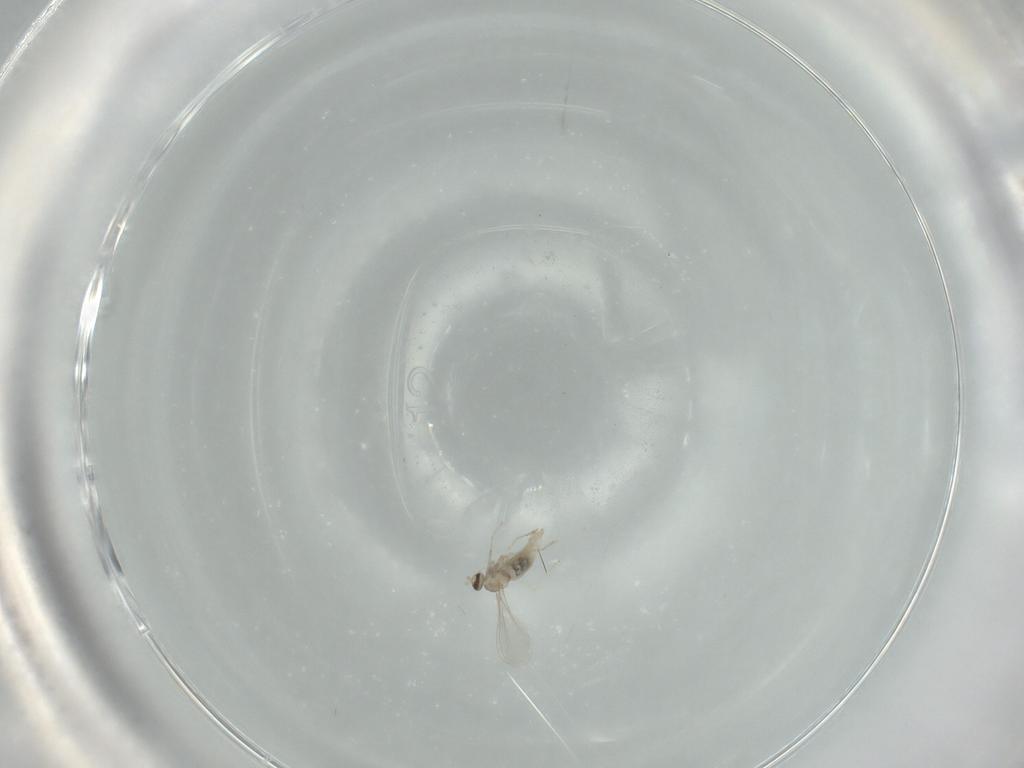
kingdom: Animalia
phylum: Arthropoda
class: Insecta
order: Diptera
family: Cecidomyiidae
